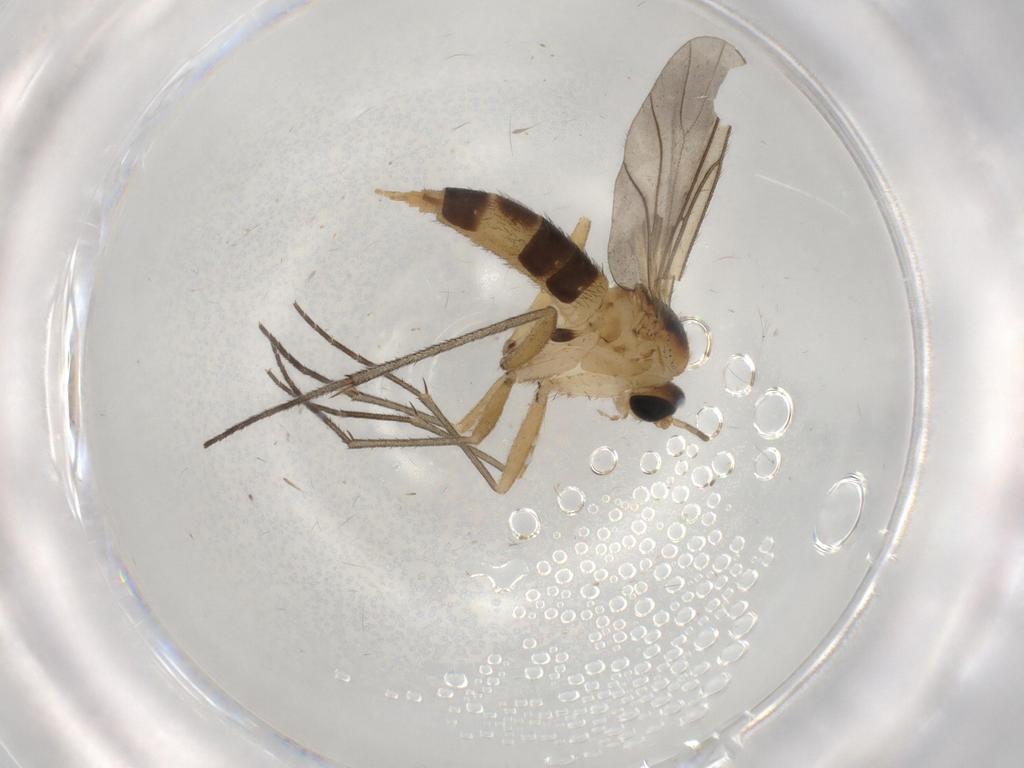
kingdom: Animalia
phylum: Arthropoda
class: Insecta
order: Diptera
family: Sciaridae
